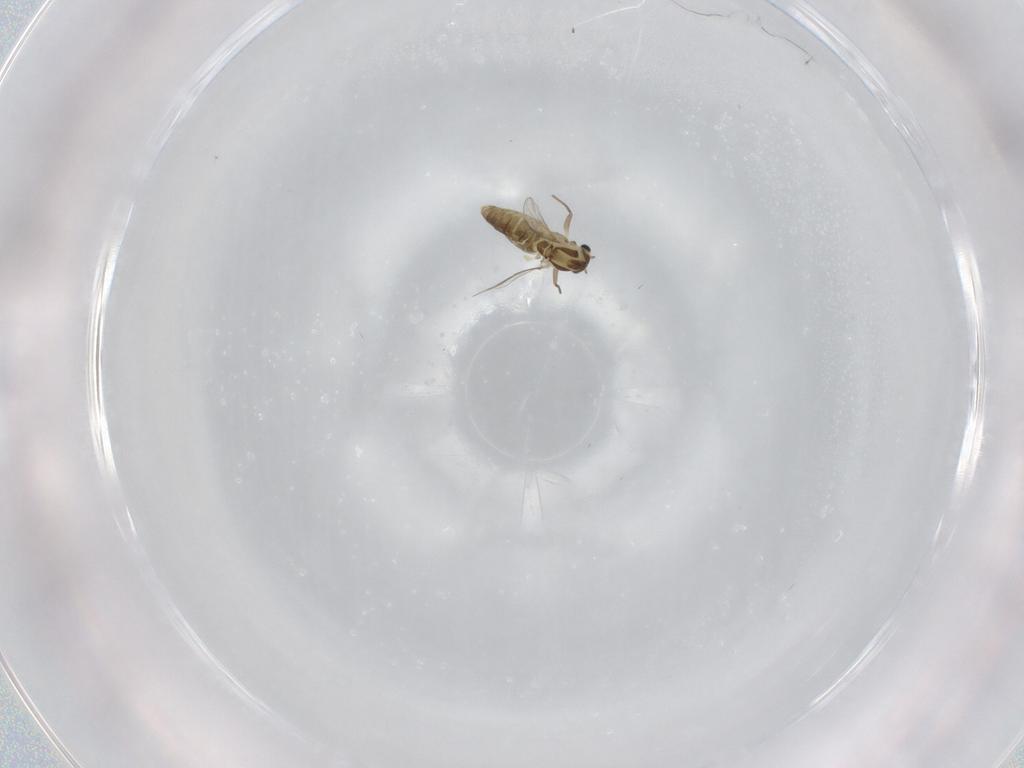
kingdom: Animalia
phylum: Arthropoda
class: Insecta
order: Diptera
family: Chironomidae
